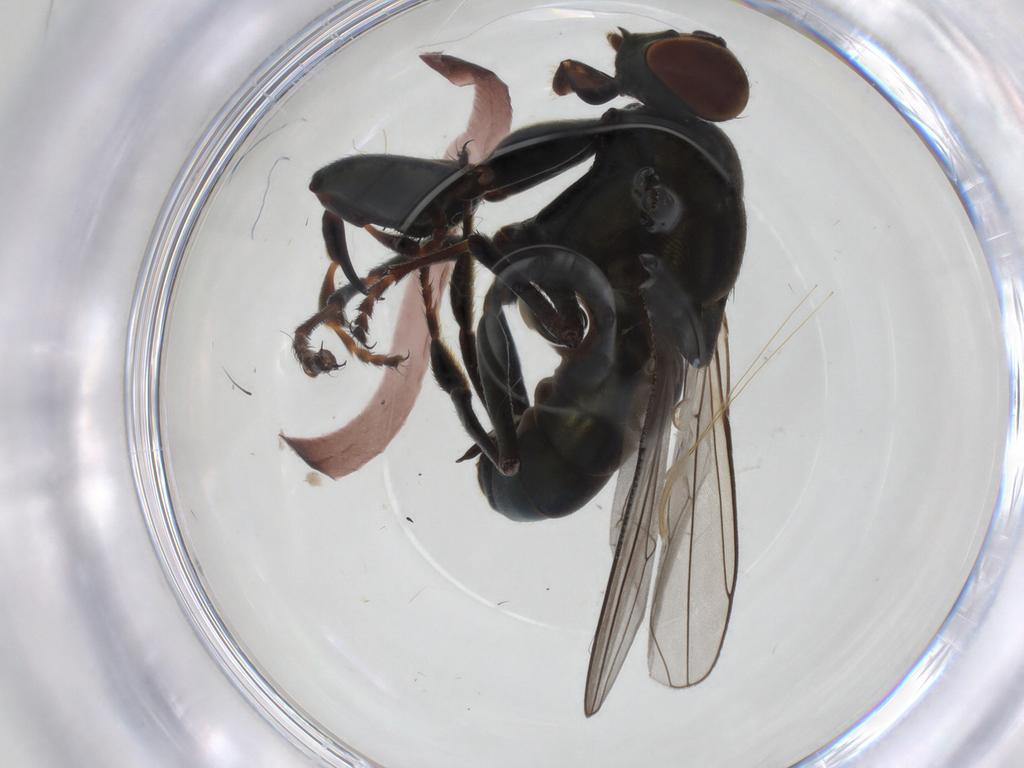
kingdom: Animalia
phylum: Arthropoda
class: Insecta
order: Diptera
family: Ephydridae
